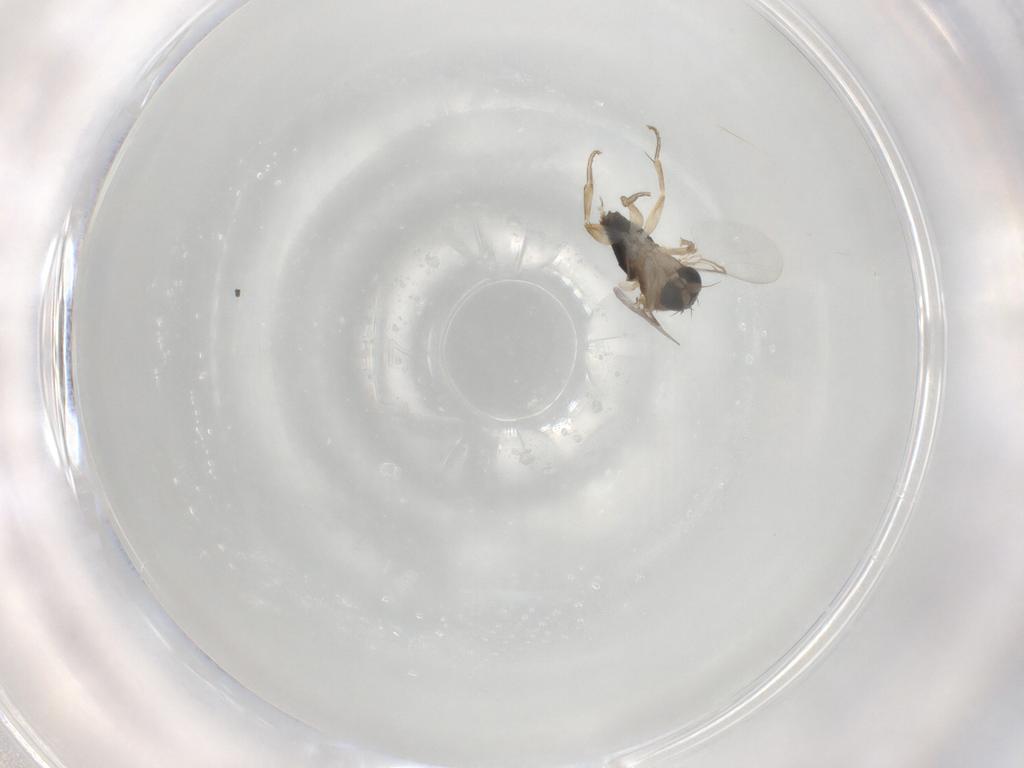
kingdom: Animalia
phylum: Arthropoda
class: Insecta
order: Diptera
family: Phoridae
